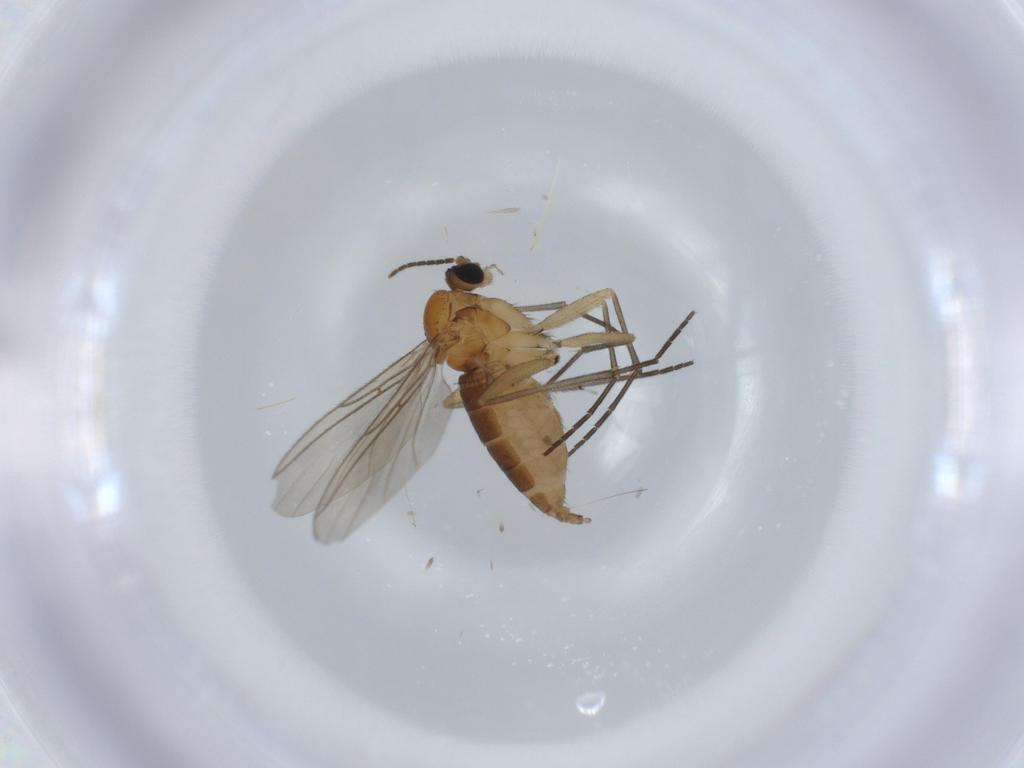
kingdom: Animalia
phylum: Arthropoda
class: Insecta
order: Diptera
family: Sciaridae
